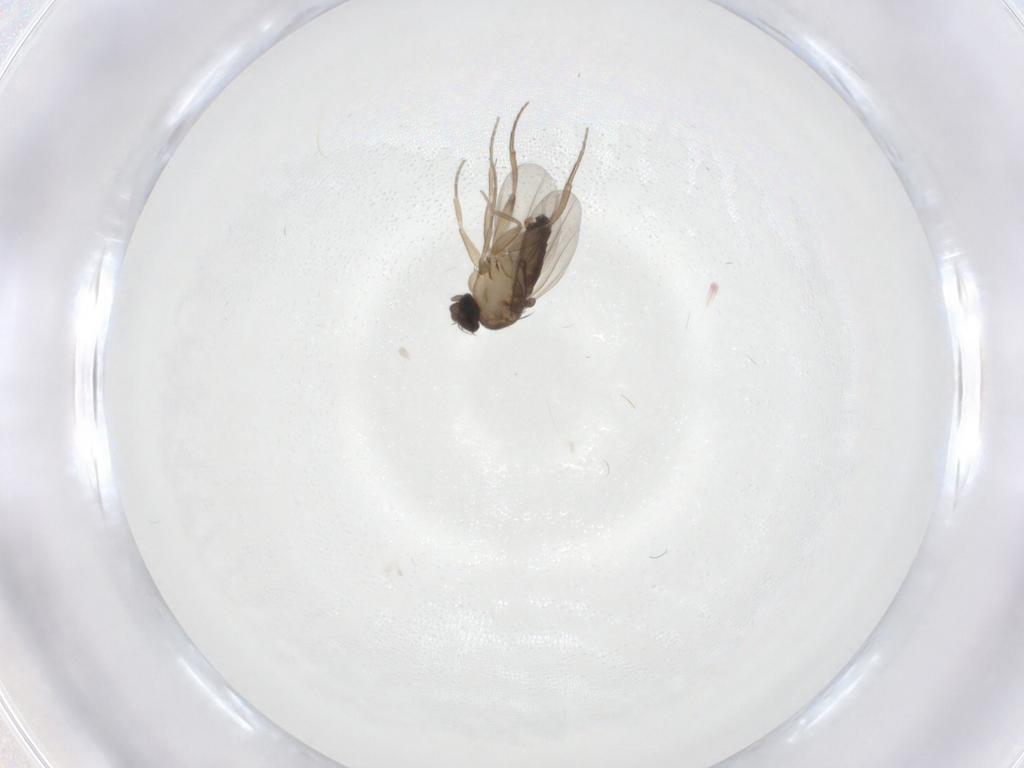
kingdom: Animalia
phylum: Arthropoda
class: Insecta
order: Diptera
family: Phoridae
